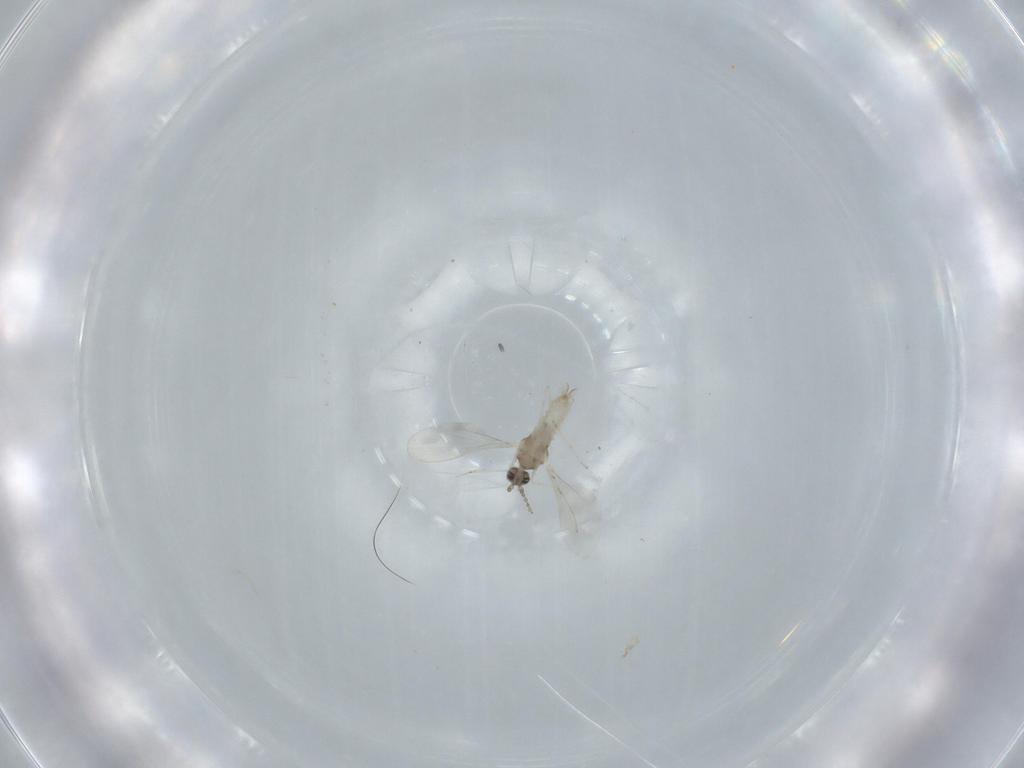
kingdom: Animalia
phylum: Arthropoda
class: Insecta
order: Diptera
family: Cecidomyiidae
